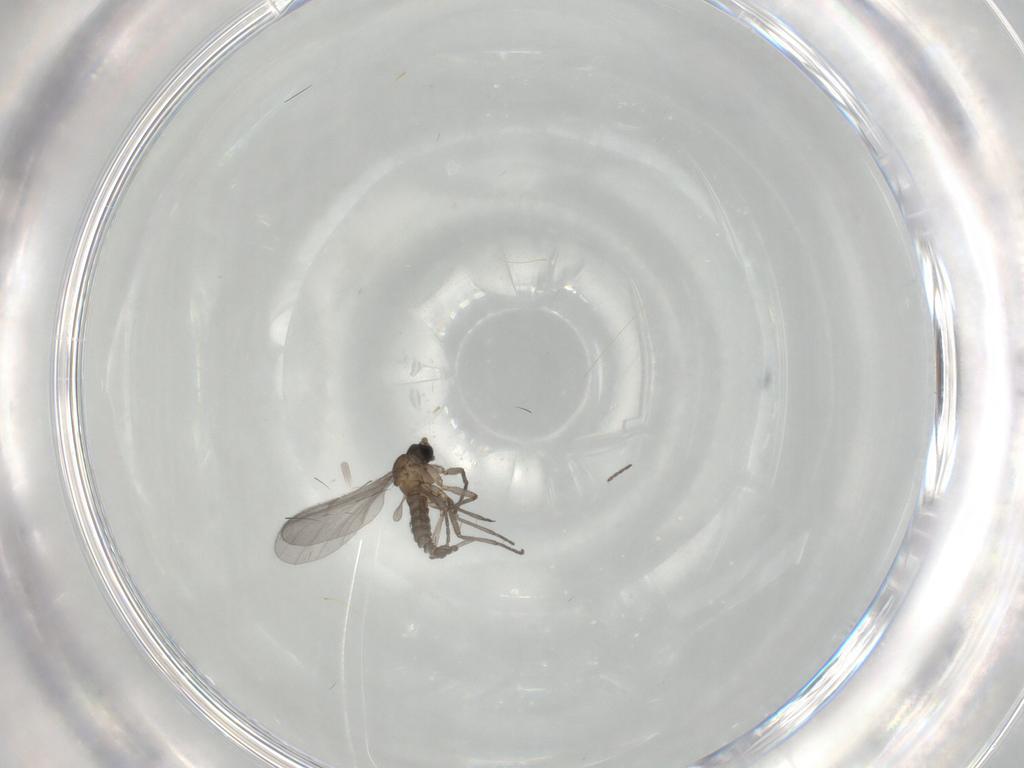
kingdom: Animalia
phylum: Arthropoda
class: Insecta
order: Diptera
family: Sciaridae
